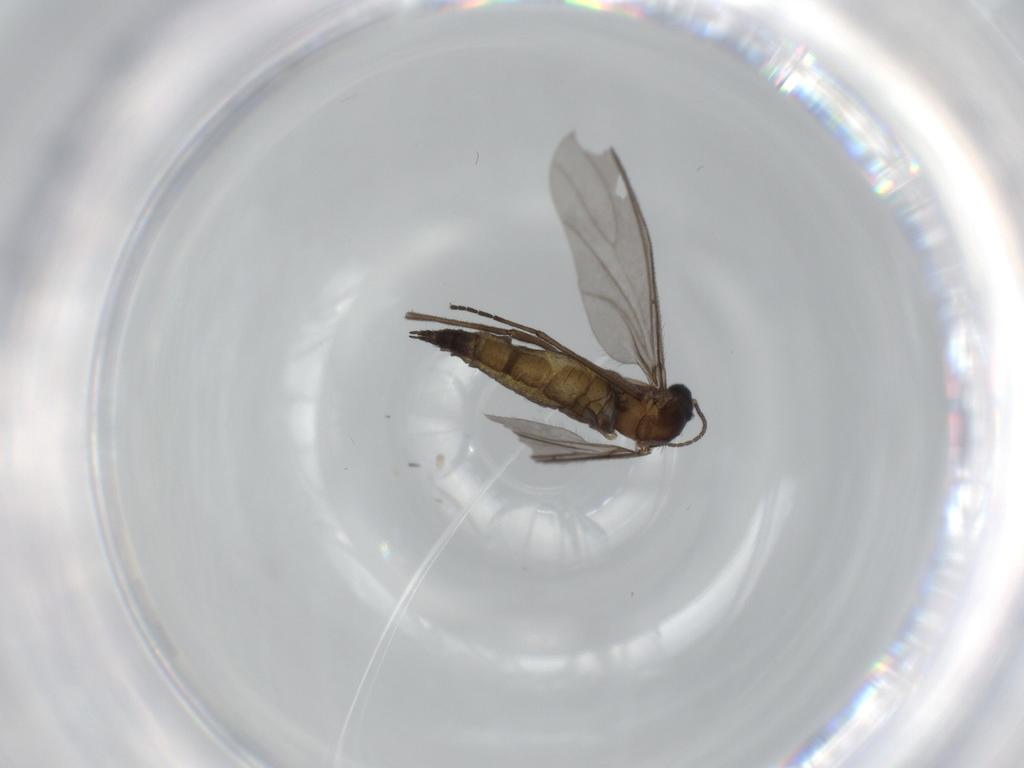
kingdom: Animalia
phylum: Arthropoda
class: Insecta
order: Diptera
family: Sciaridae
